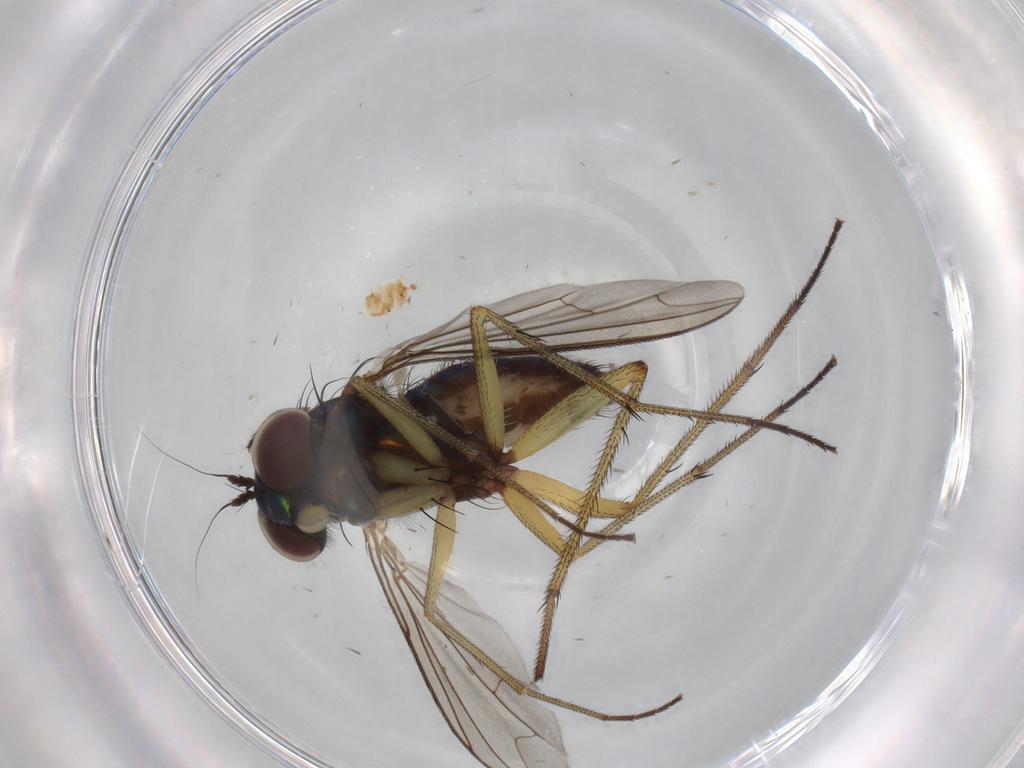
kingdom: Animalia
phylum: Arthropoda
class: Insecta
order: Diptera
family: Dolichopodidae
